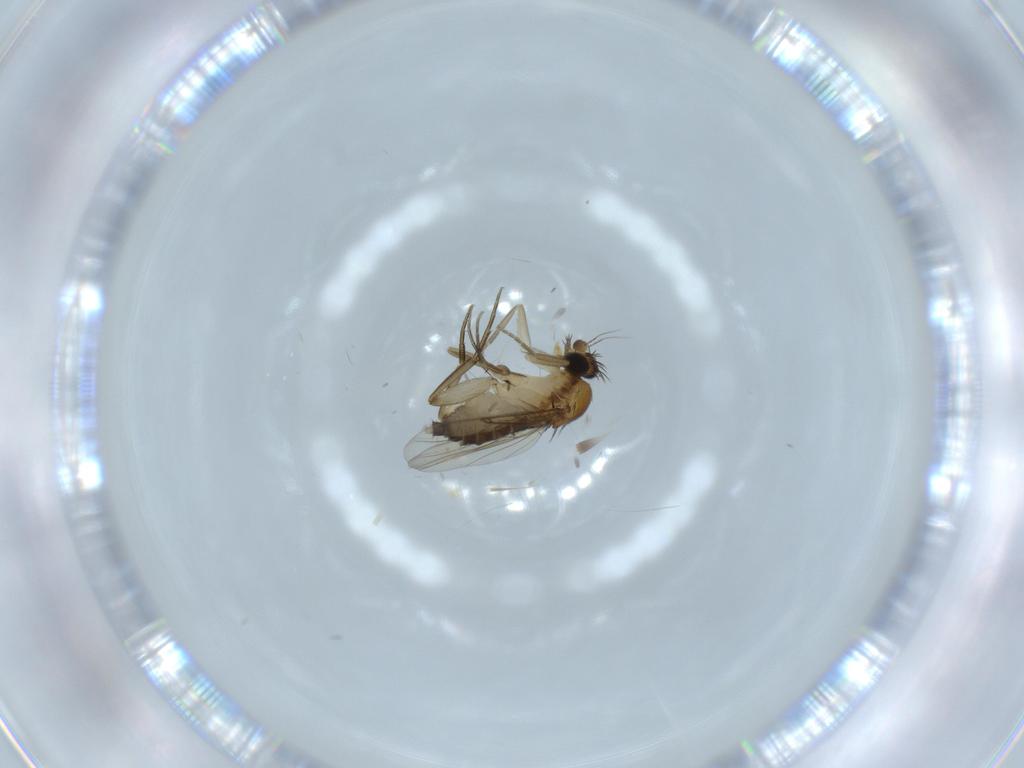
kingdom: Animalia
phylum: Arthropoda
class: Insecta
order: Diptera
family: Phoridae
